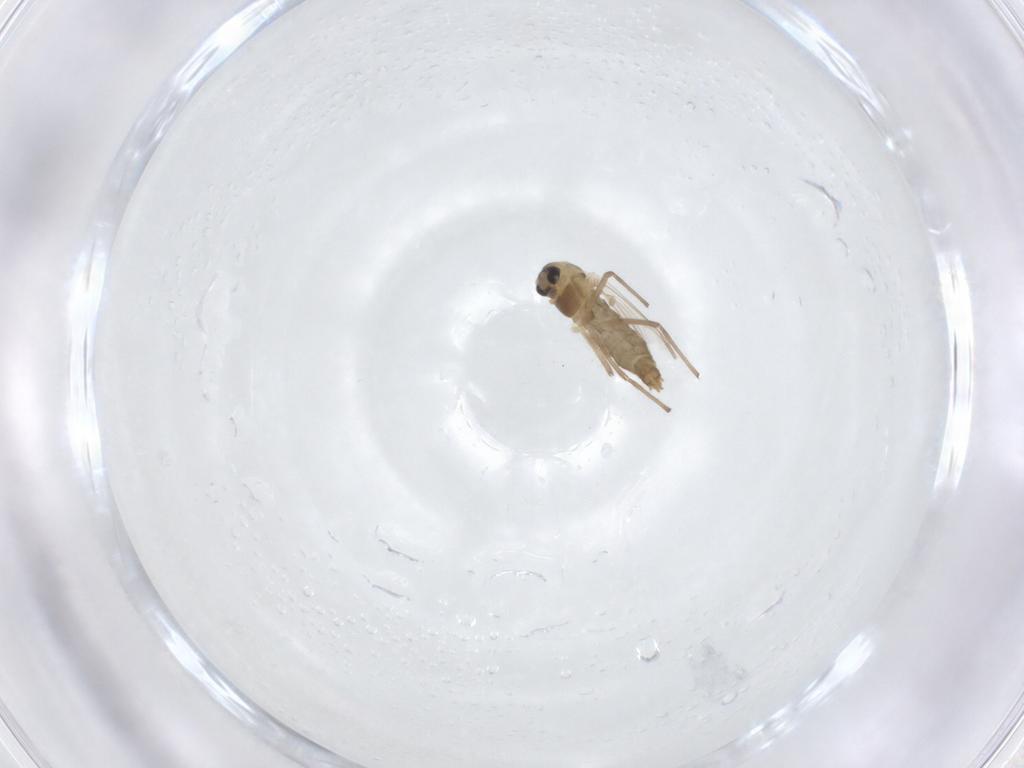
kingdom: Animalia
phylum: Arthropoda
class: Insecta
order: Diptera
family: Chironomidae
